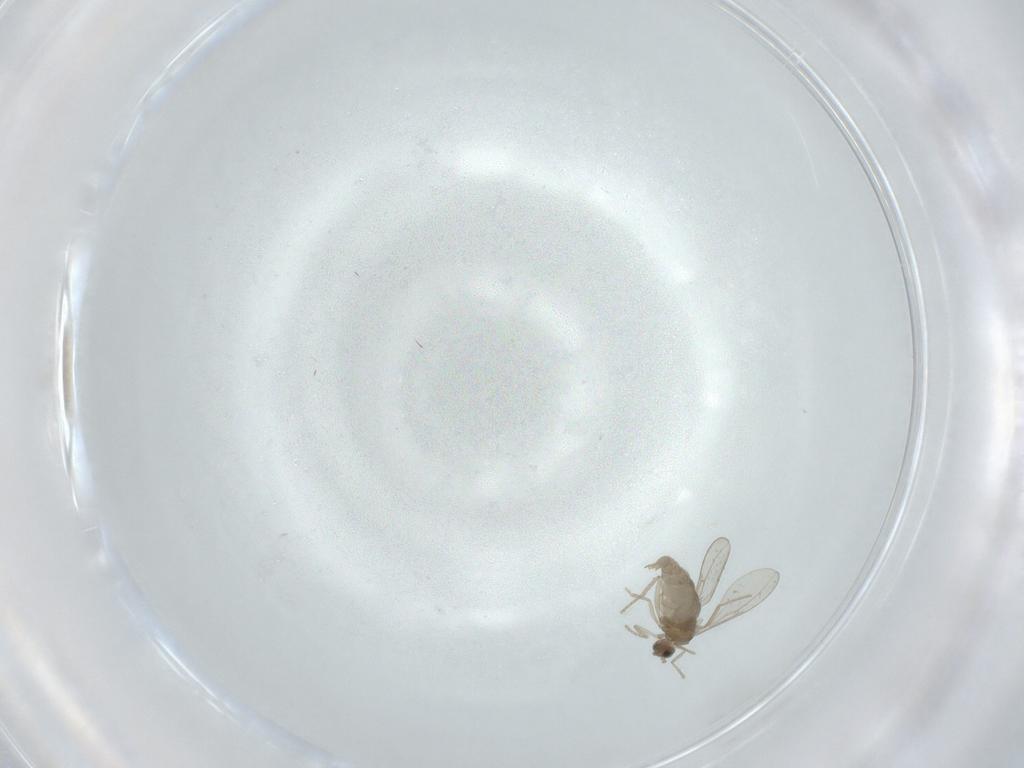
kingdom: Animalia
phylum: Arthropoda
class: Insecta
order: Diptera
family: Cecidomyiidae
